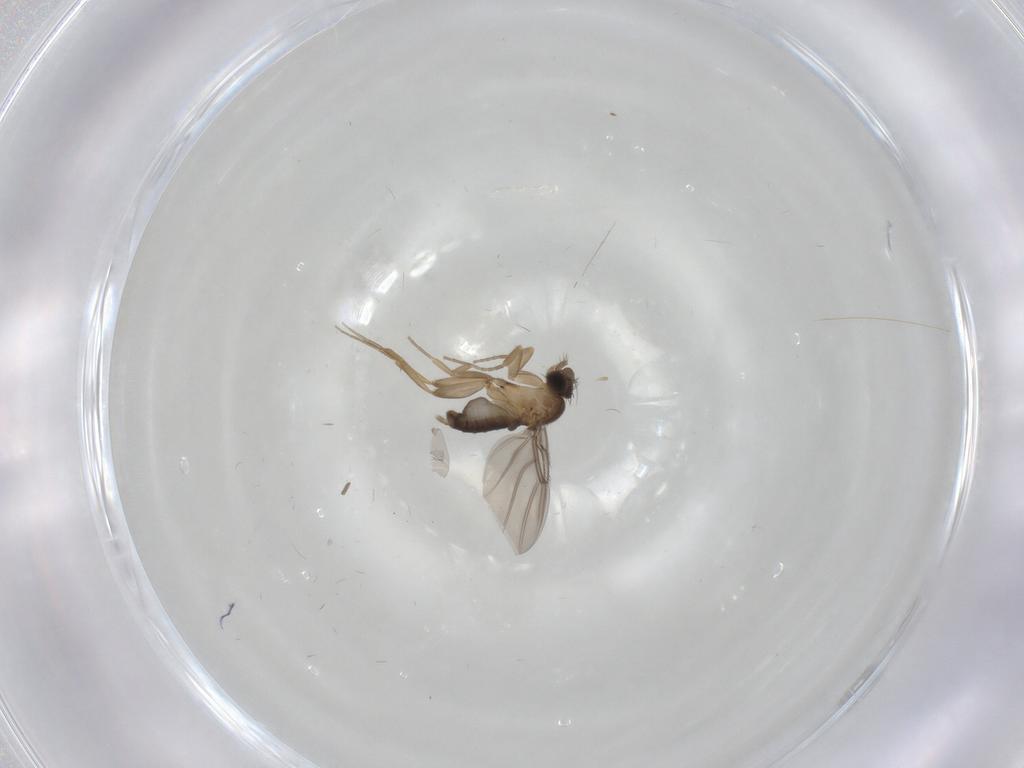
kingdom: Animalia
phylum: Arthropoda
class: Insecta
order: Diptera
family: Phoridae
